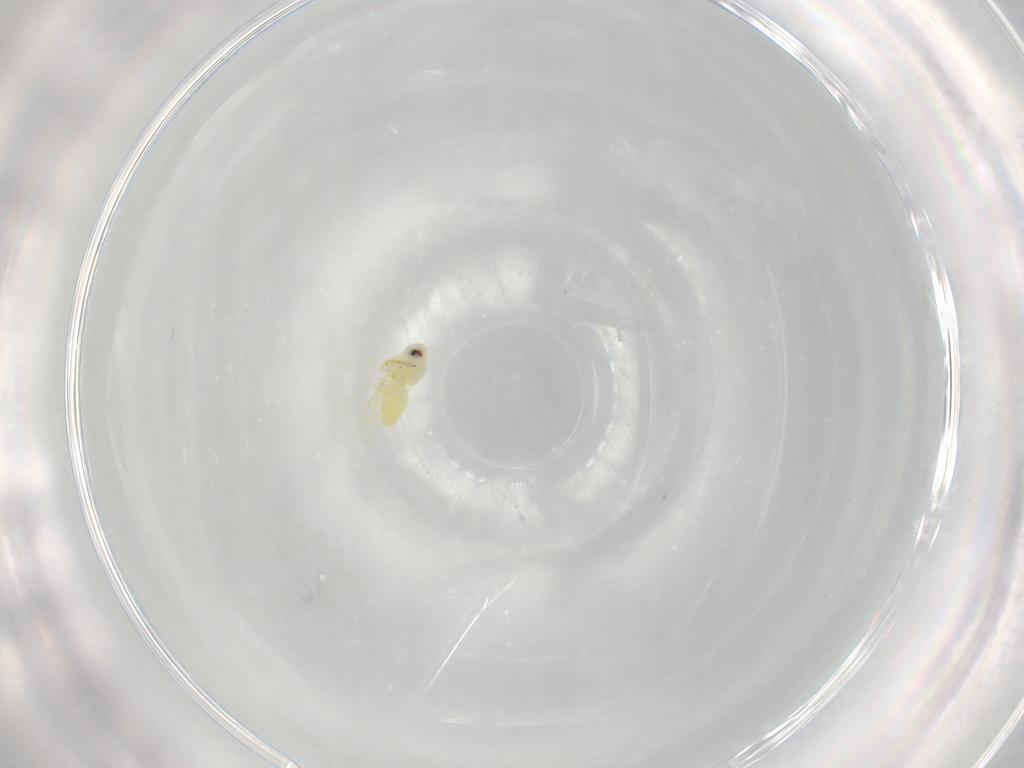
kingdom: Animalia
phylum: Arthropoda
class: Insecta
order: Hemiptera
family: Aleyrodidae
